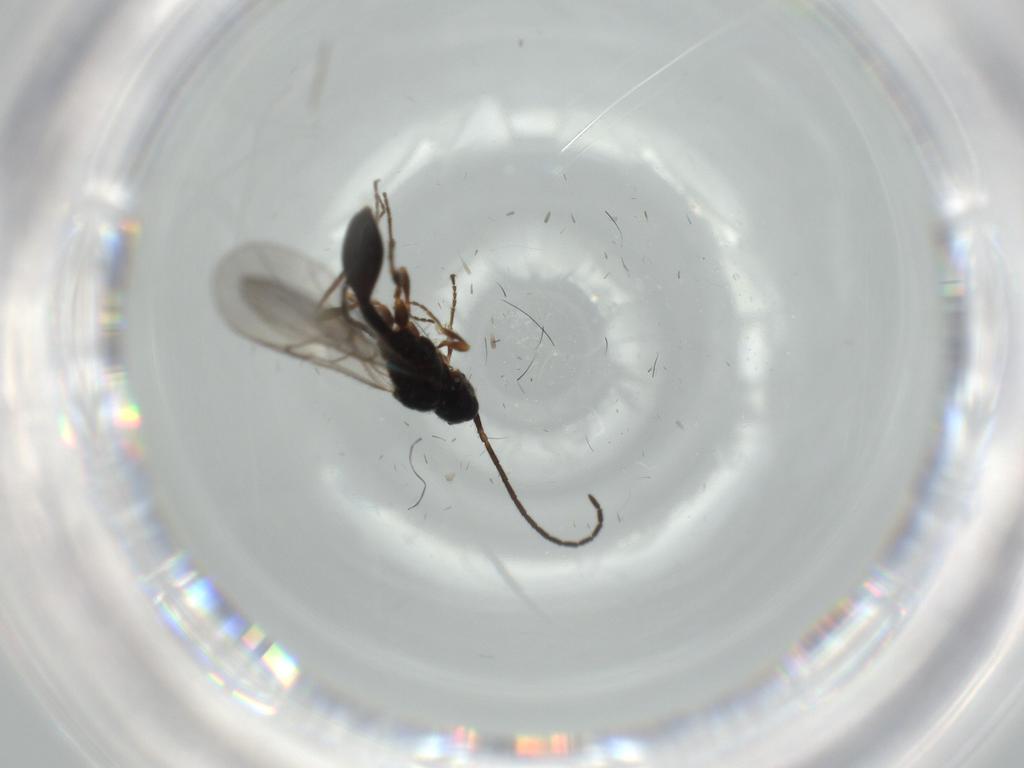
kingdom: Animalia
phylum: Arthropoda
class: Insecta
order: Hymenoptera
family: Diapriidae
